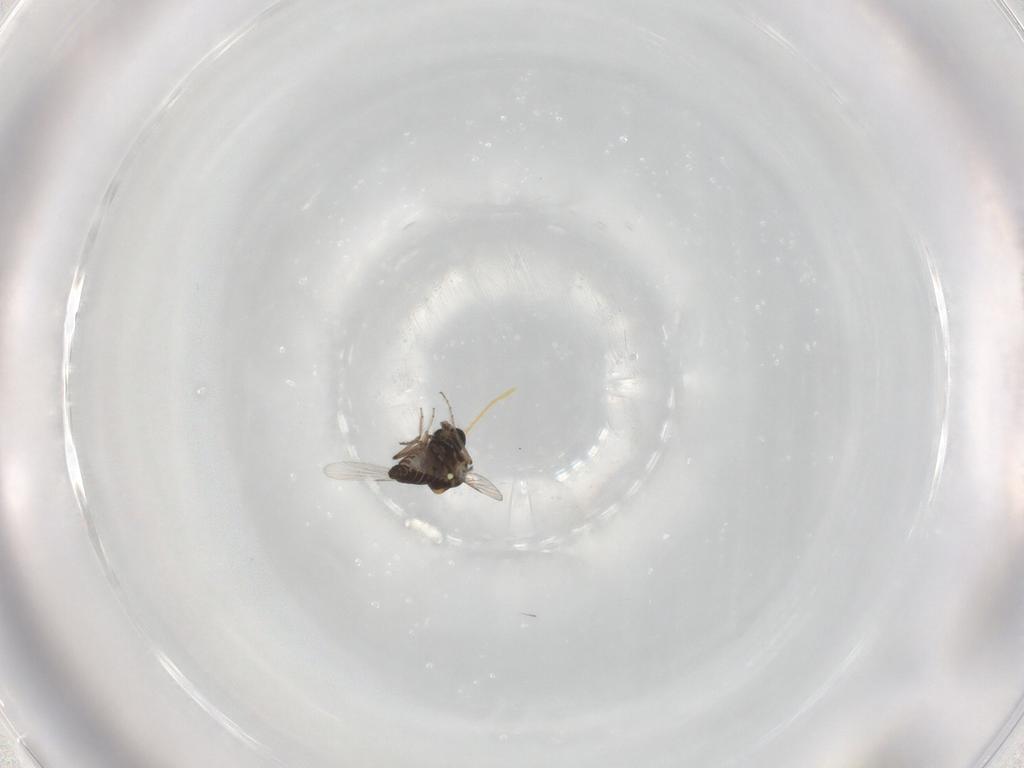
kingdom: Animalia
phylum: Arthropoda
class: Insecta
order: Diptera
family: Ceratopogonidae
